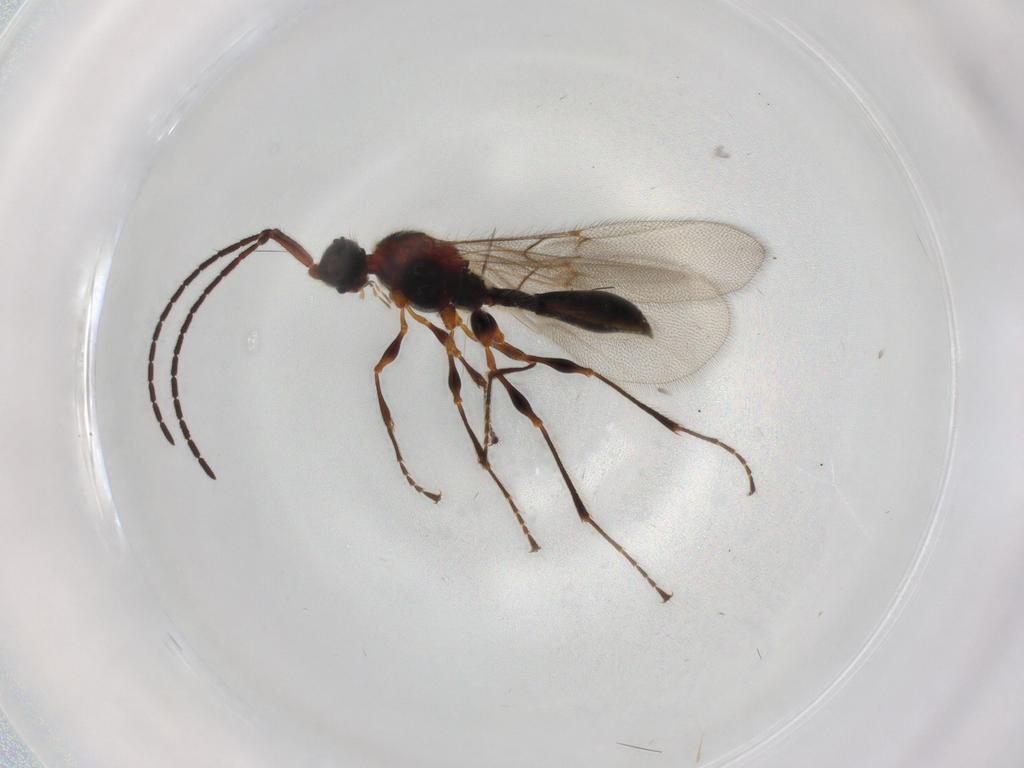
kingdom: Animalia
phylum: Arthropoda
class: Insecta
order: Hymenoptera
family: Diapriidae
